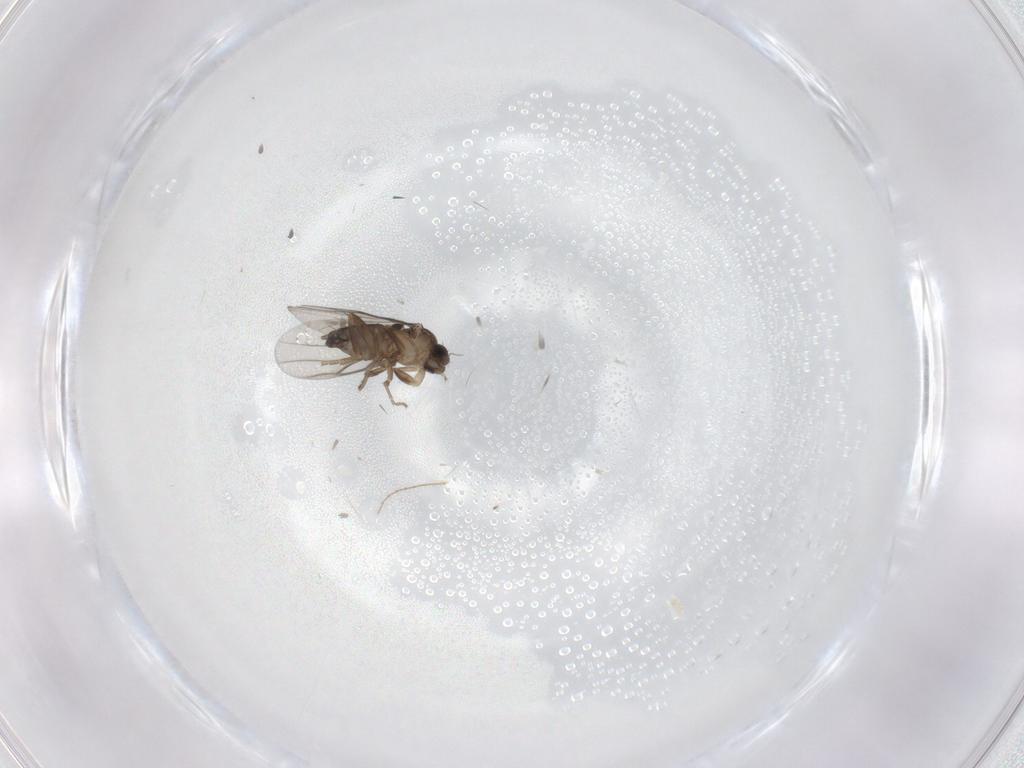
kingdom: Animalia
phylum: Arthropoda
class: Insecta
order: Diptera
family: Phoridae
